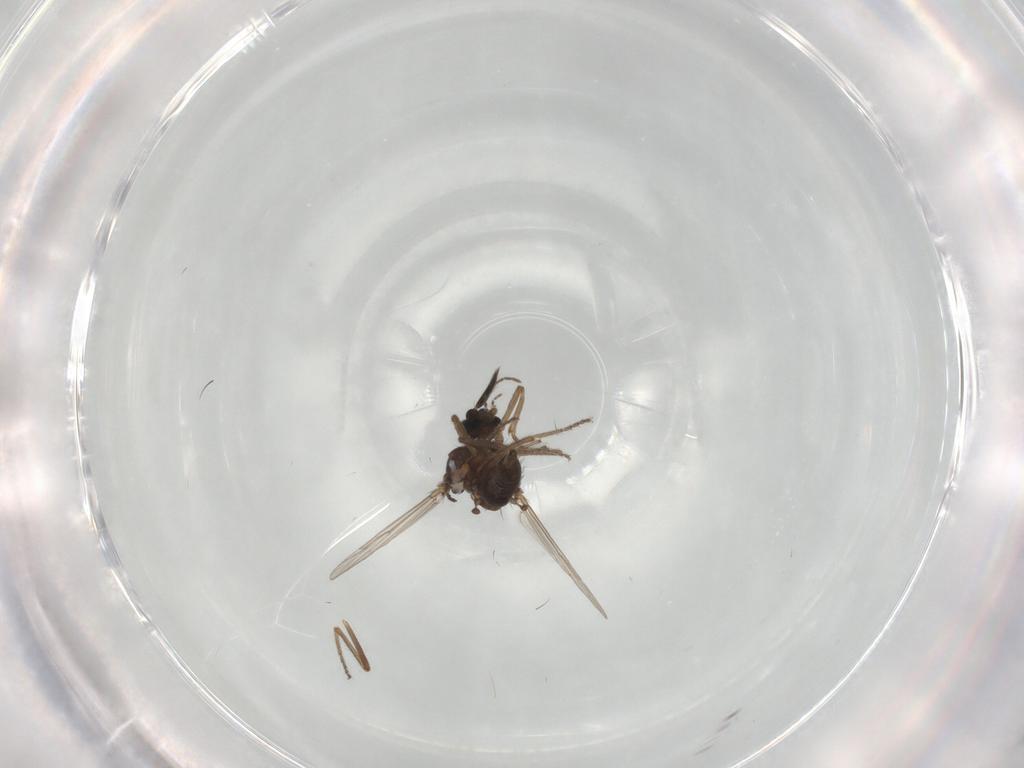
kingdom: Animalia
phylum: Arthropoda
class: Insecta
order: Diptera
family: Ceratopogonidae
